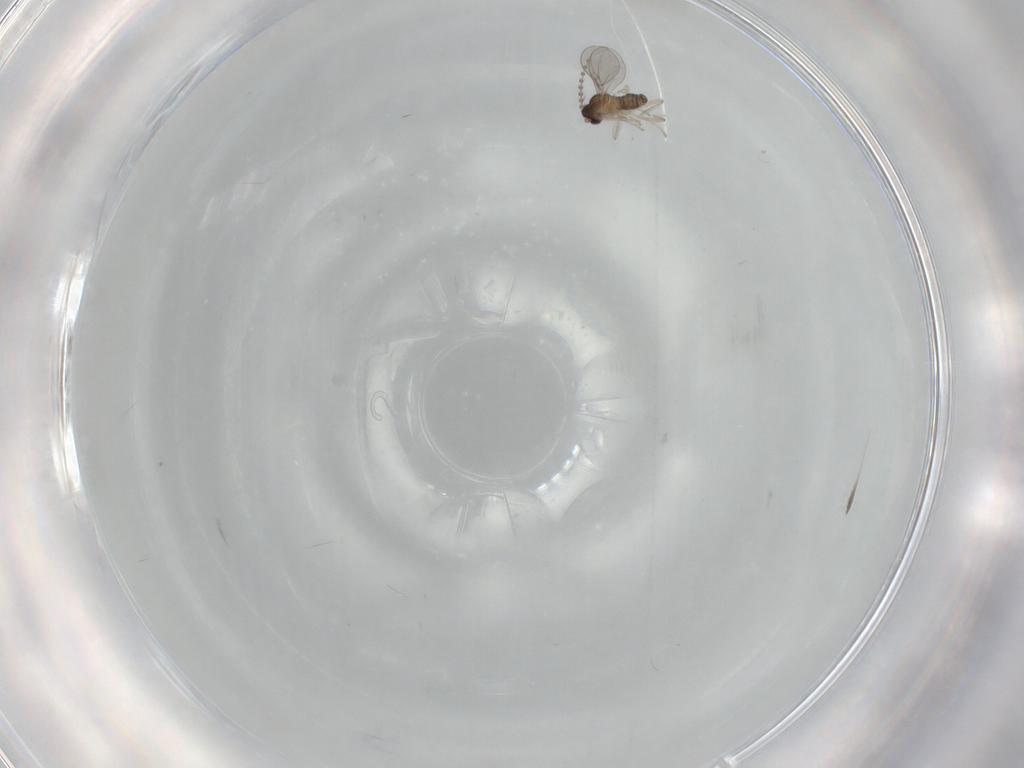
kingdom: Animalia
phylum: Arthropoda
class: Insecta
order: Diptera
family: Cecidomyiidae
